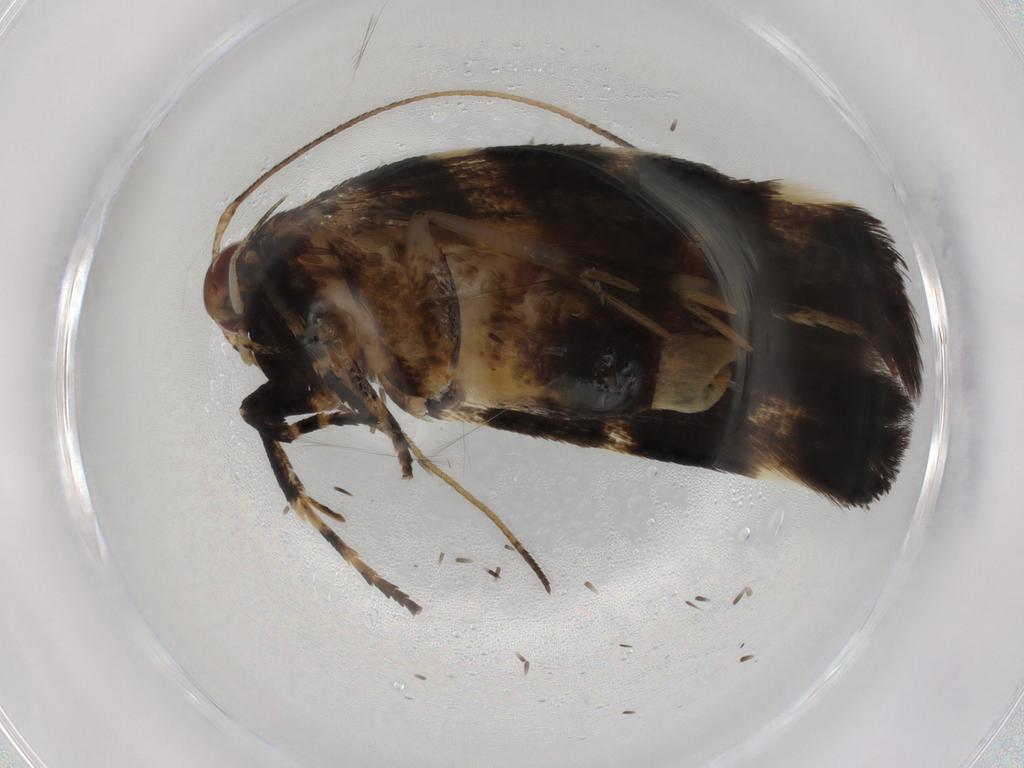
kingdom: Animalia
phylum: Arthropoda
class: Insecta
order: Lepidoptera
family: Cosmopterigidae
